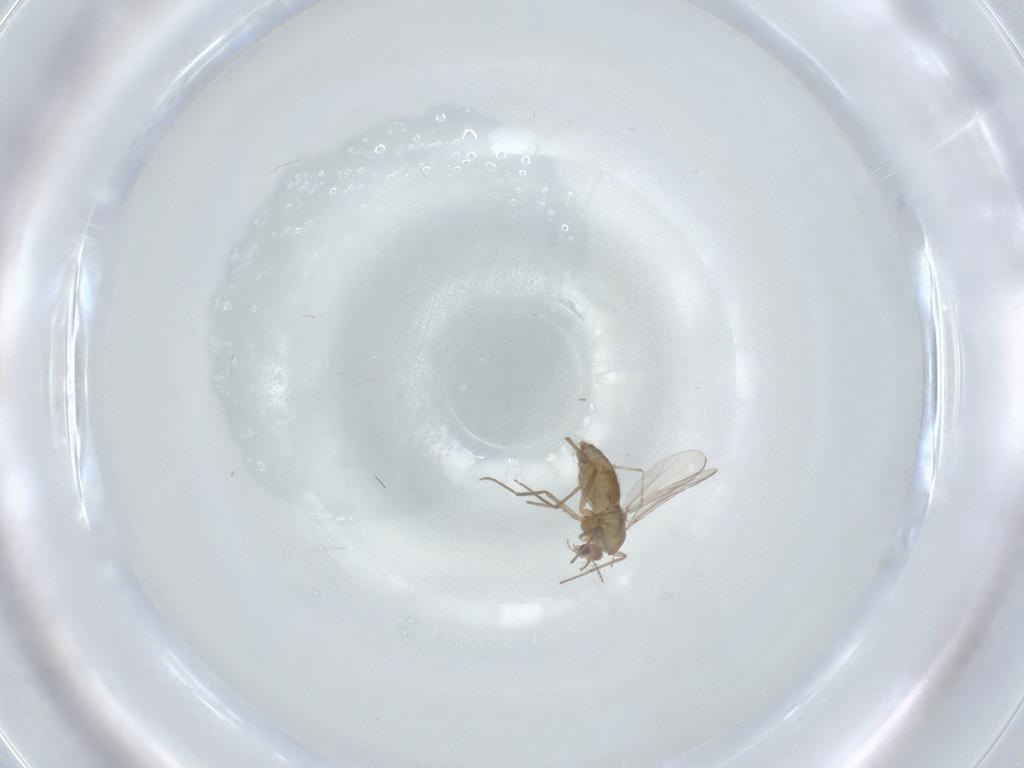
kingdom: Animalia
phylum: Arthropoda
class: Insecta
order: Diptera
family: Chironomidae
